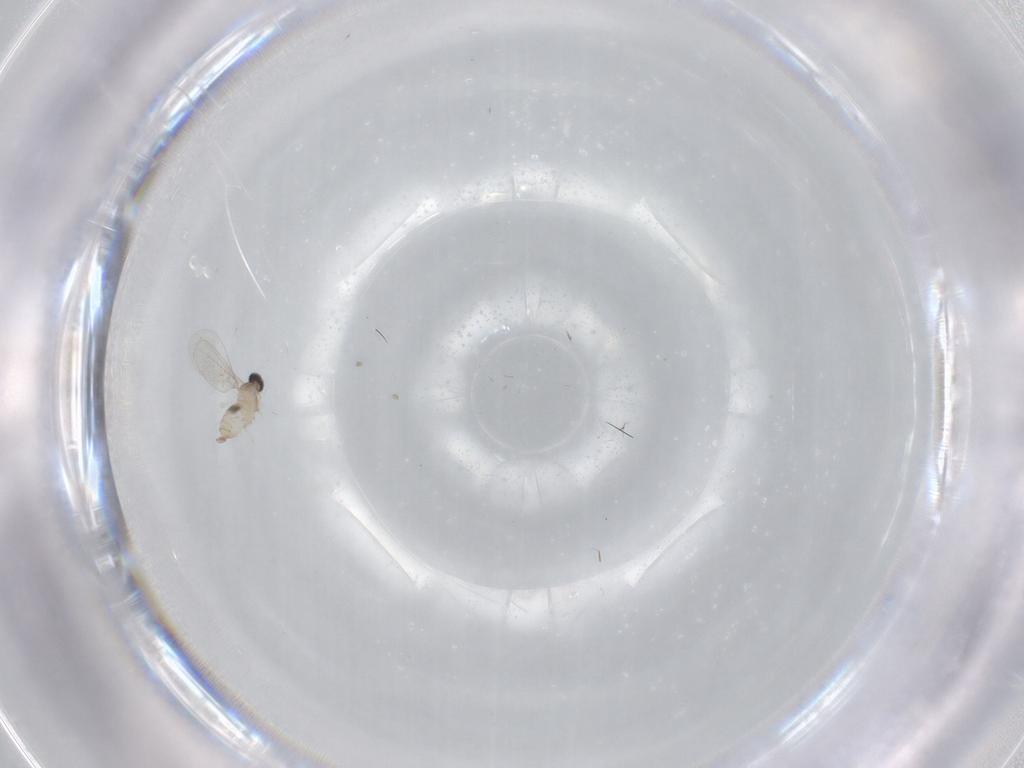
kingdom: Animalia
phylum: Arthropoda
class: Insecta
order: Diptera
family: Cecidomyiidae
